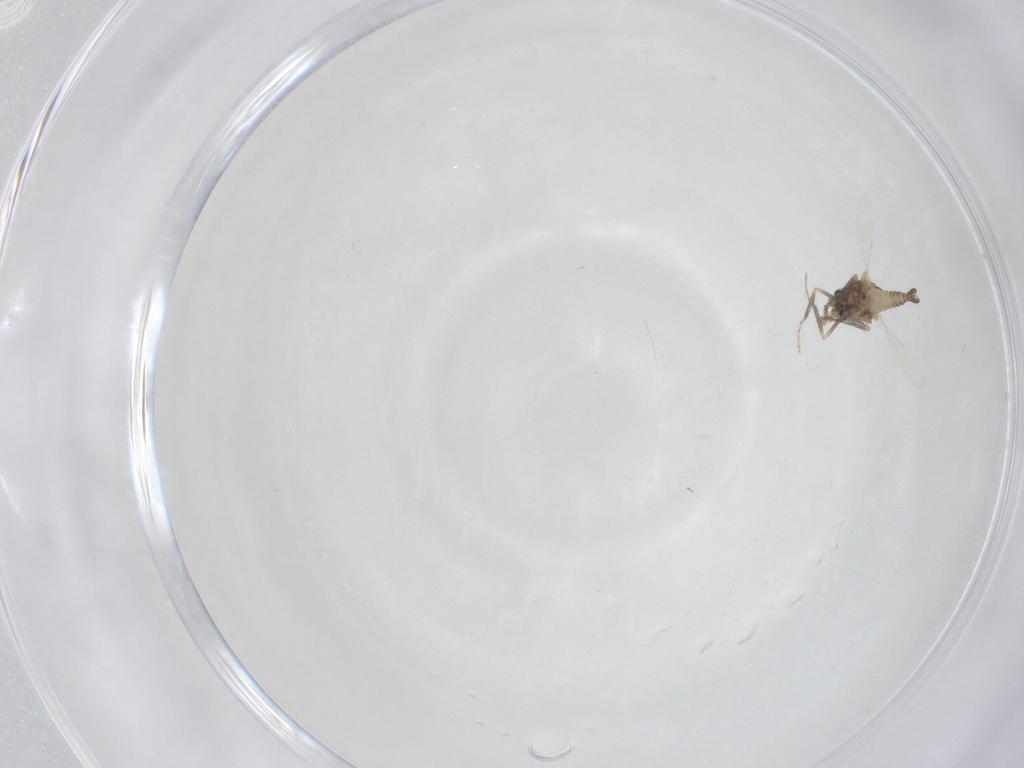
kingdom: Animalia
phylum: Arthropoda
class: Insecta
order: Diptera
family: Ceratopogonidae
